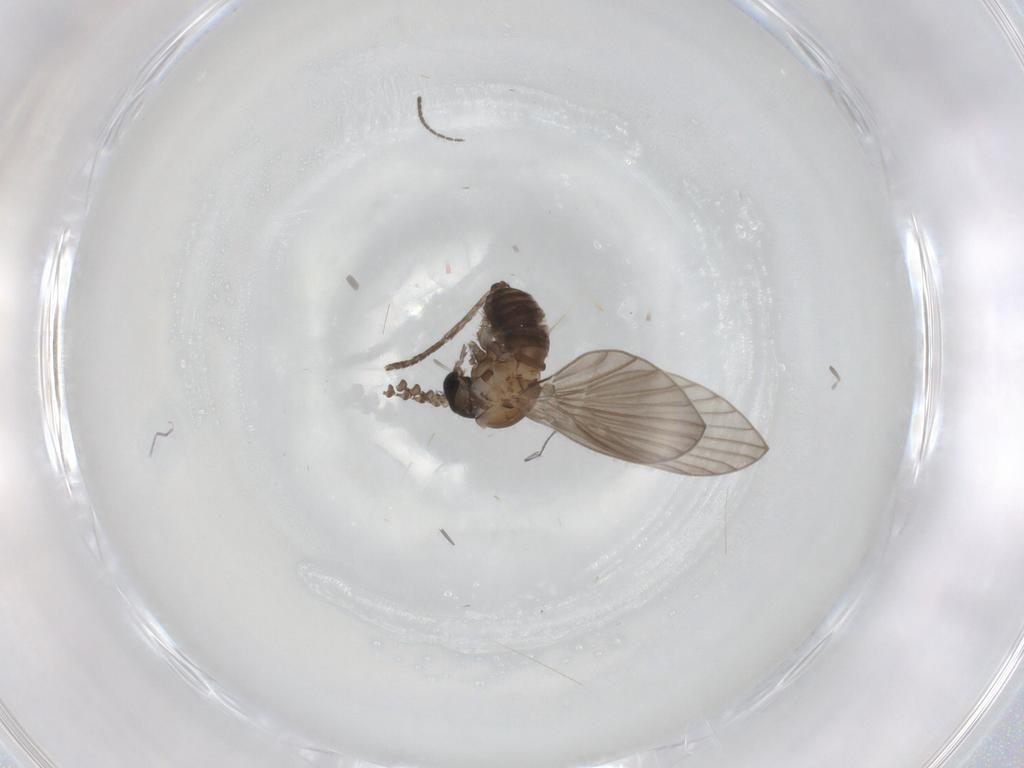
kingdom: Animalia
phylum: Arthropoda
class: Insecta
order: Diptera
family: Psychodidae
